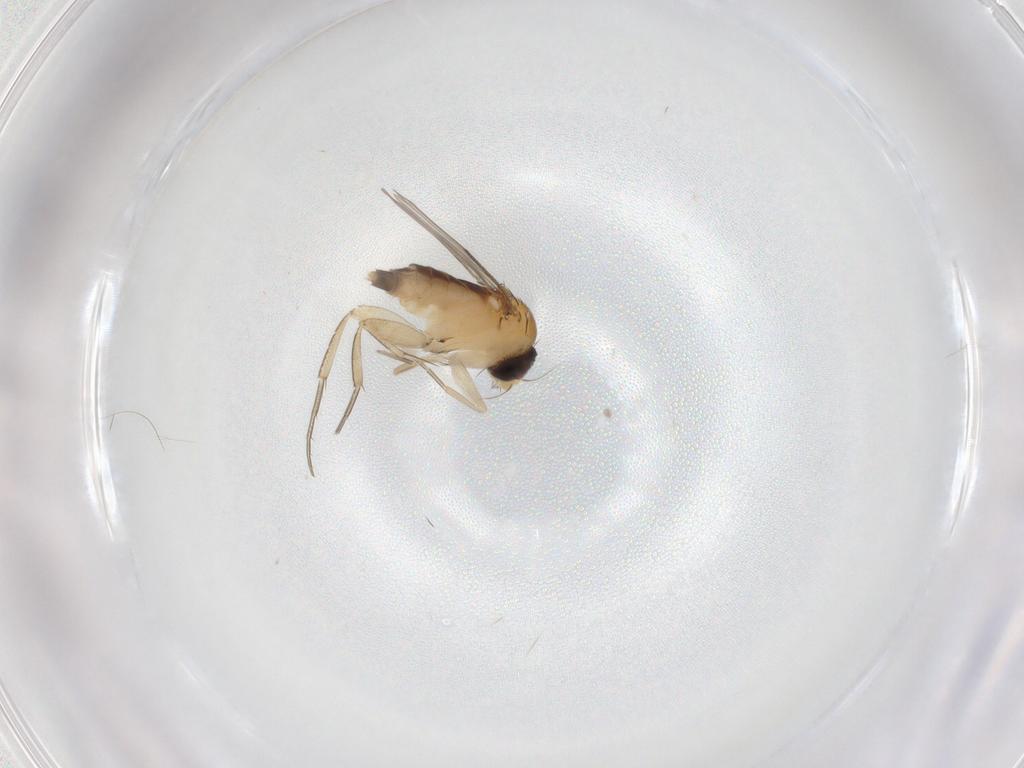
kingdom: Animalia
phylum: Arthropoda
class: Insecta
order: Diptera
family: Phoridae
